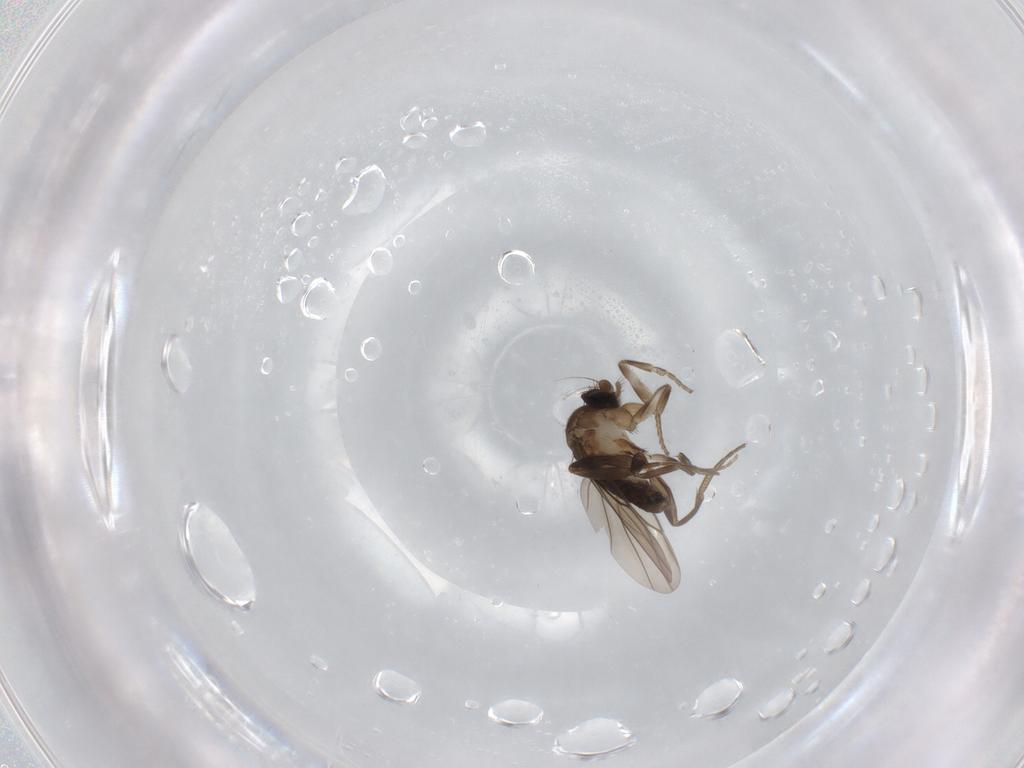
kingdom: Animalia
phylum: Arthropoda
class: Insecta
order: Diptera
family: Phoridae
